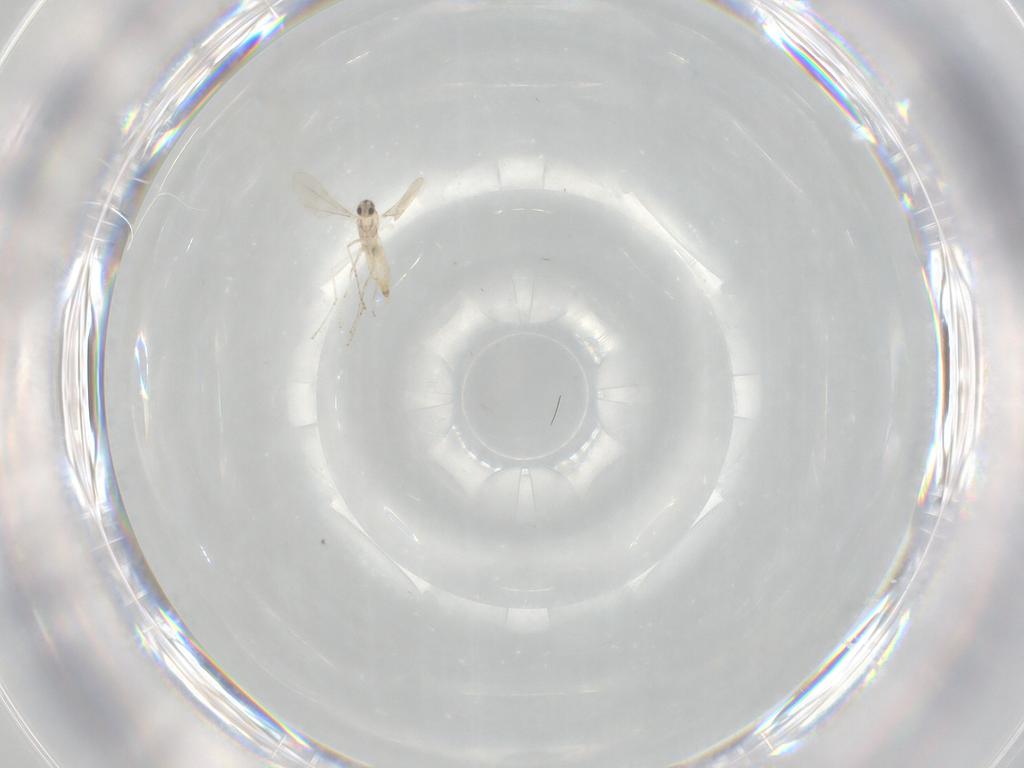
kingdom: Animalia
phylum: Arthropoda
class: Insecta
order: Diptera
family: Cecidomyiidae
